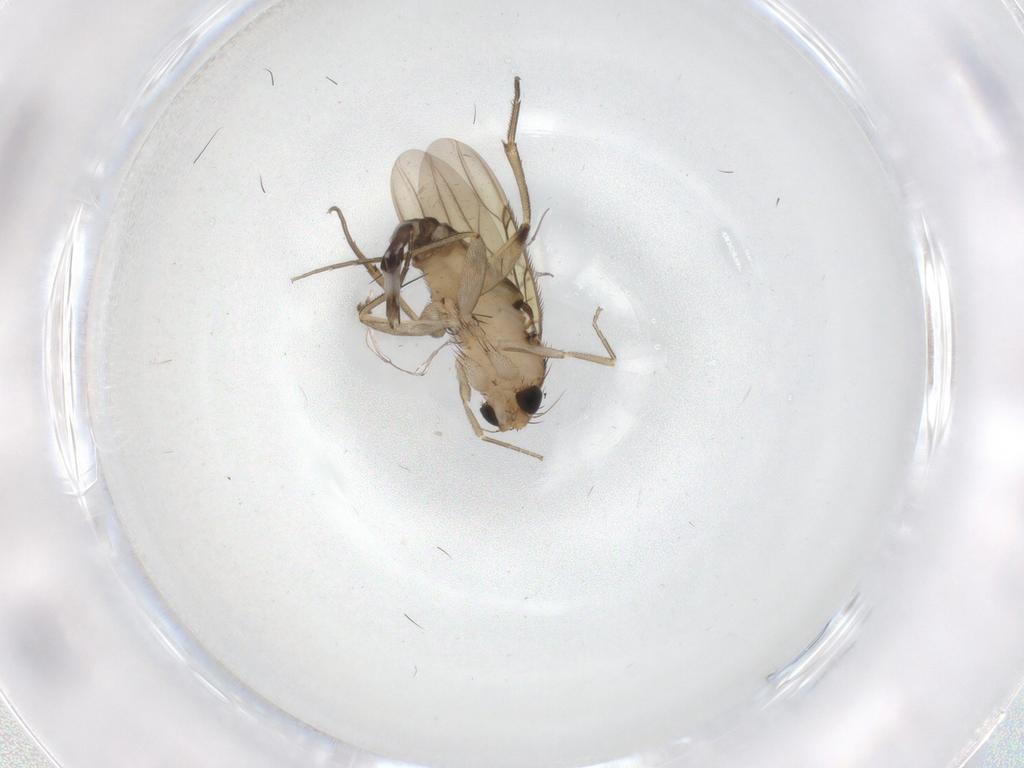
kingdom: Animalia
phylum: Arthropoda
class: Insecta
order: Diptera
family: Phoridae
